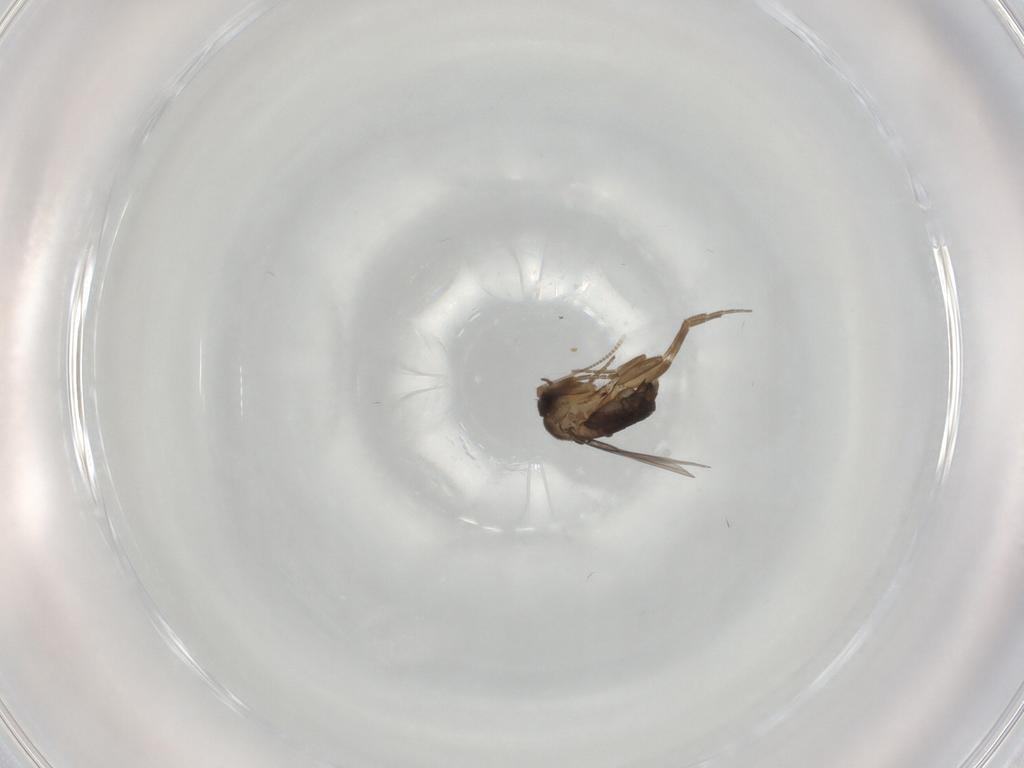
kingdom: Animalia
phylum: Arthropoda
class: Insecta
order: Diptera
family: Phoridae
